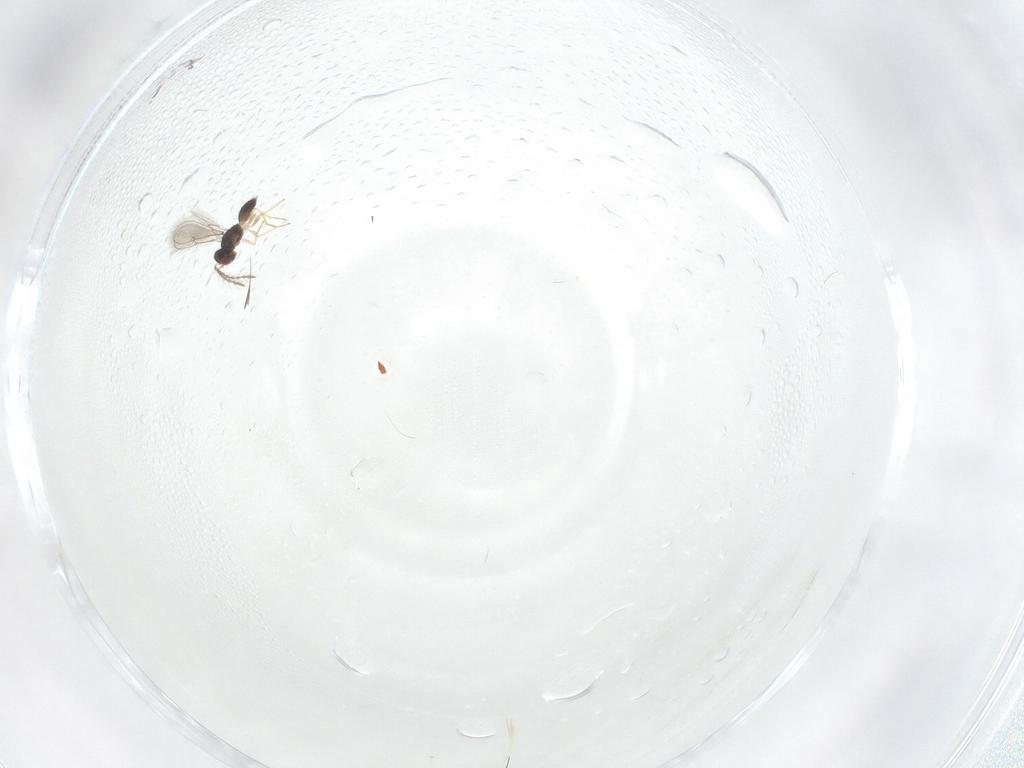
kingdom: Animalia
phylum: Arthropoda
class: Insecta
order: Hymenoptera
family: Eulophidae
